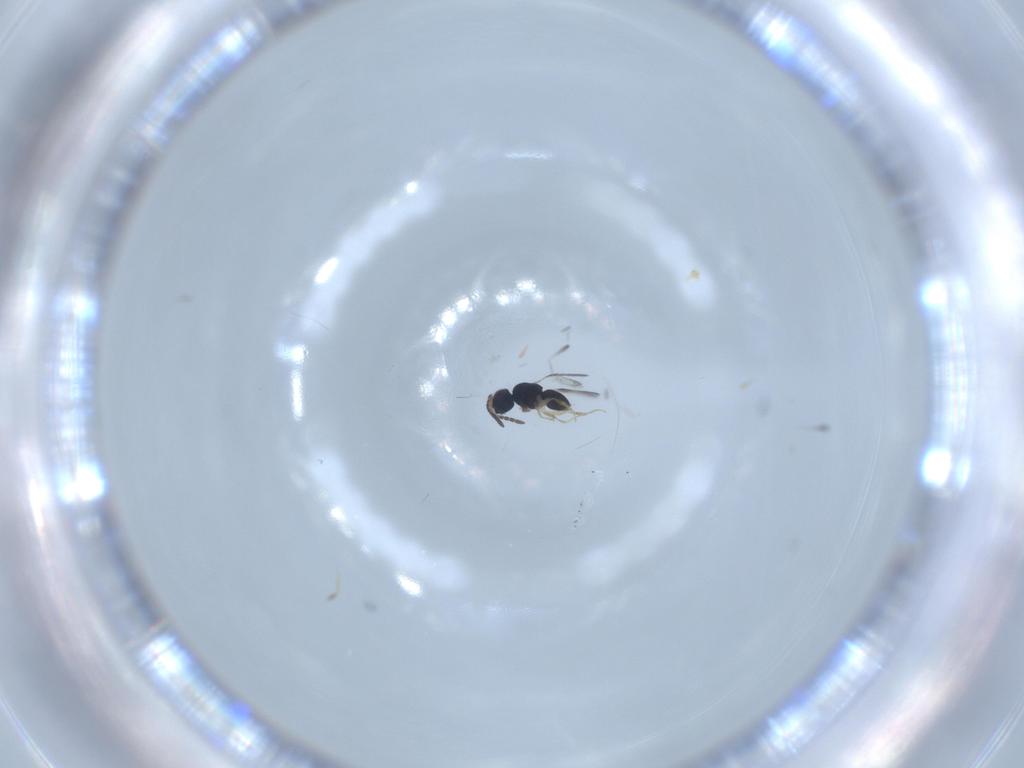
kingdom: Animalia
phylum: Arthropoda
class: Insecta
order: Hymenoptera
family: Ceraphronidae
